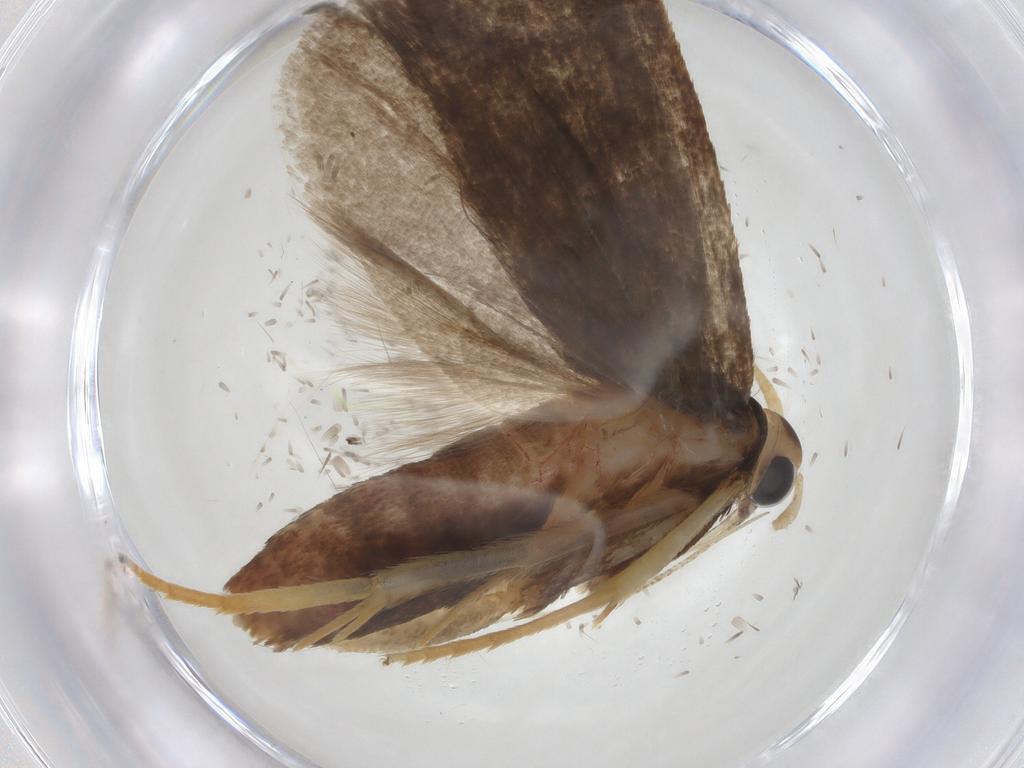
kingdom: Animalia
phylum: Arthropoda
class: Insecta
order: Lepidoptera
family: Lecithoceridae
